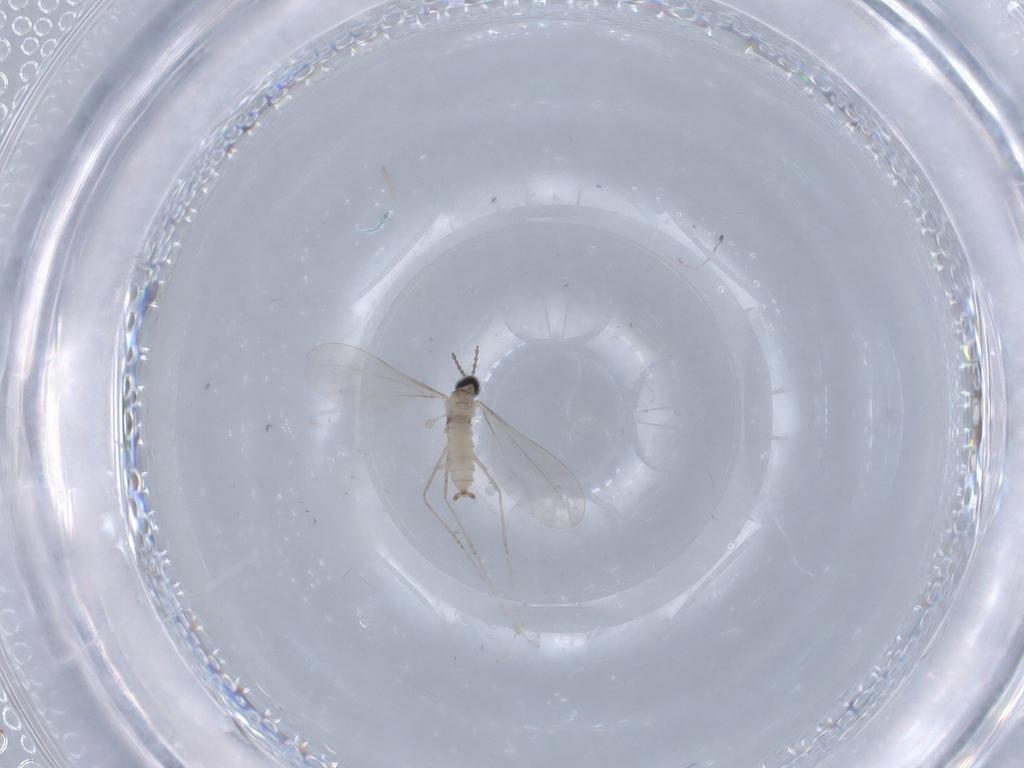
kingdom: Animalia
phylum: Arthropoda
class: Insecta
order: Diptera
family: Cecidomyiidae
